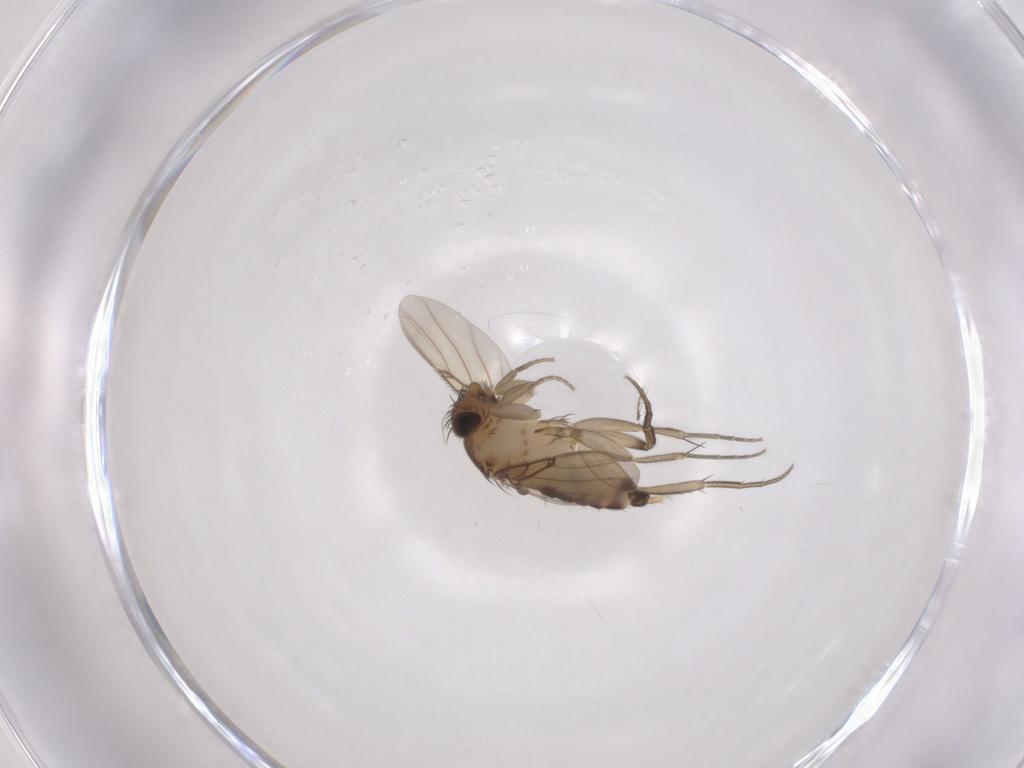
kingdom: Animalia
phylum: Arthropoda
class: Insecta
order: Diptera
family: Phoridae
